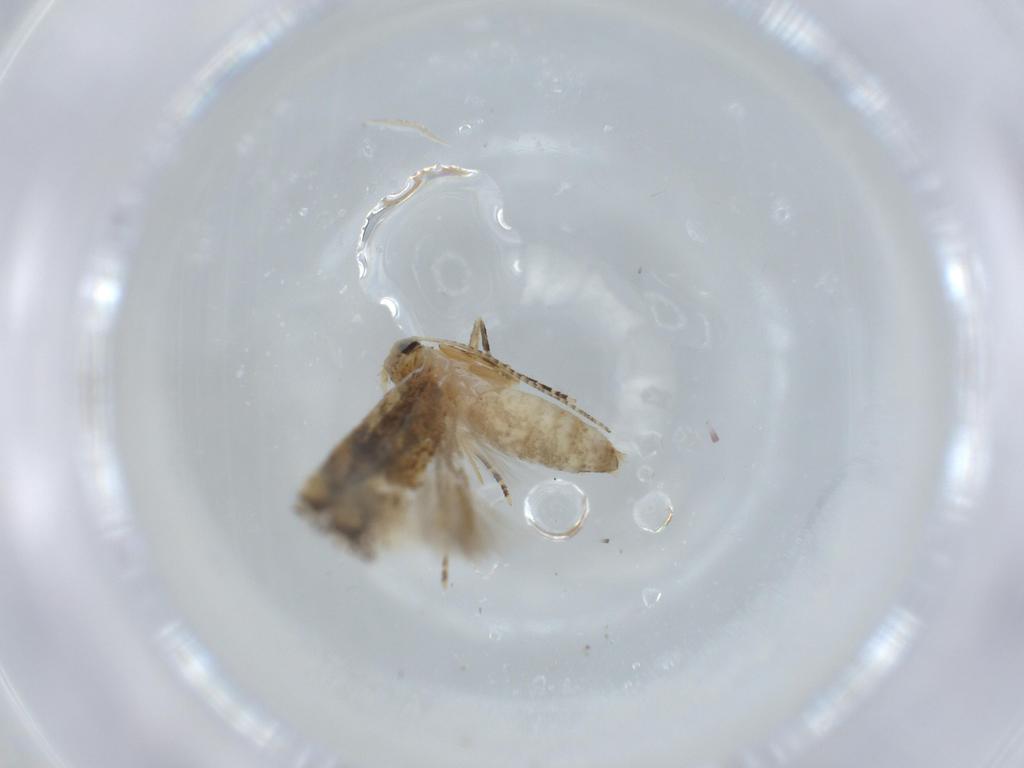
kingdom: Animalia
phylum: Arthropoda
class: Insecta
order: Lepidoptera
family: Bucculatricidae
